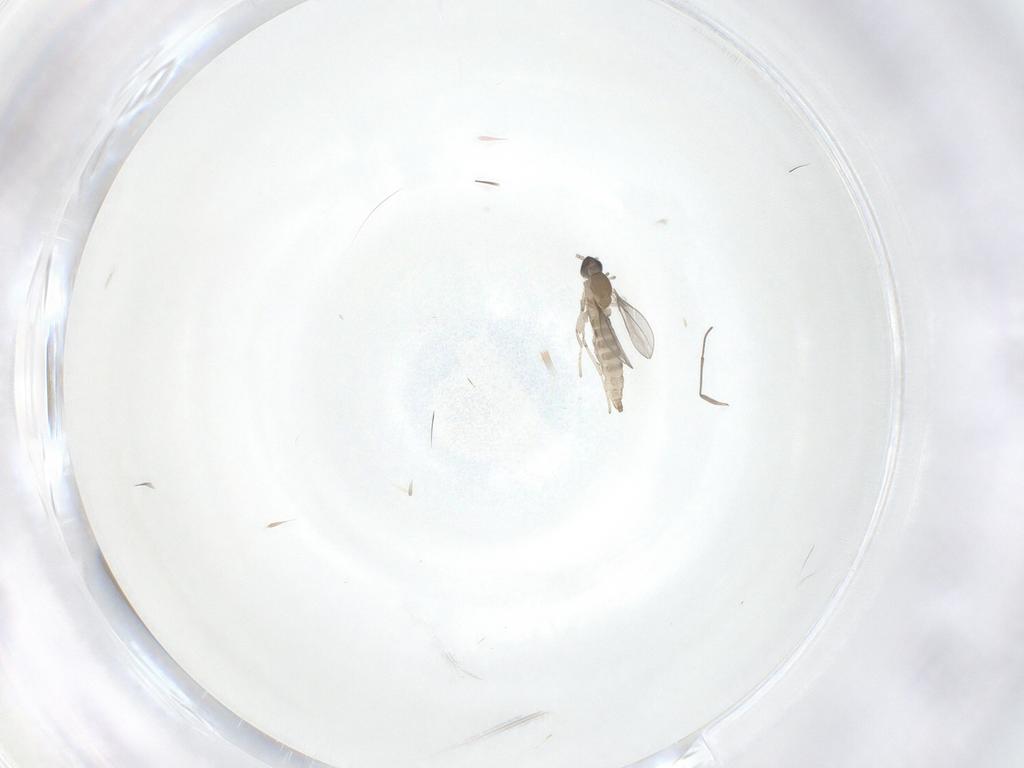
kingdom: Animalia
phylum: Arthropoda
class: Insecta
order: Diptera
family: Cecidomyiidae
